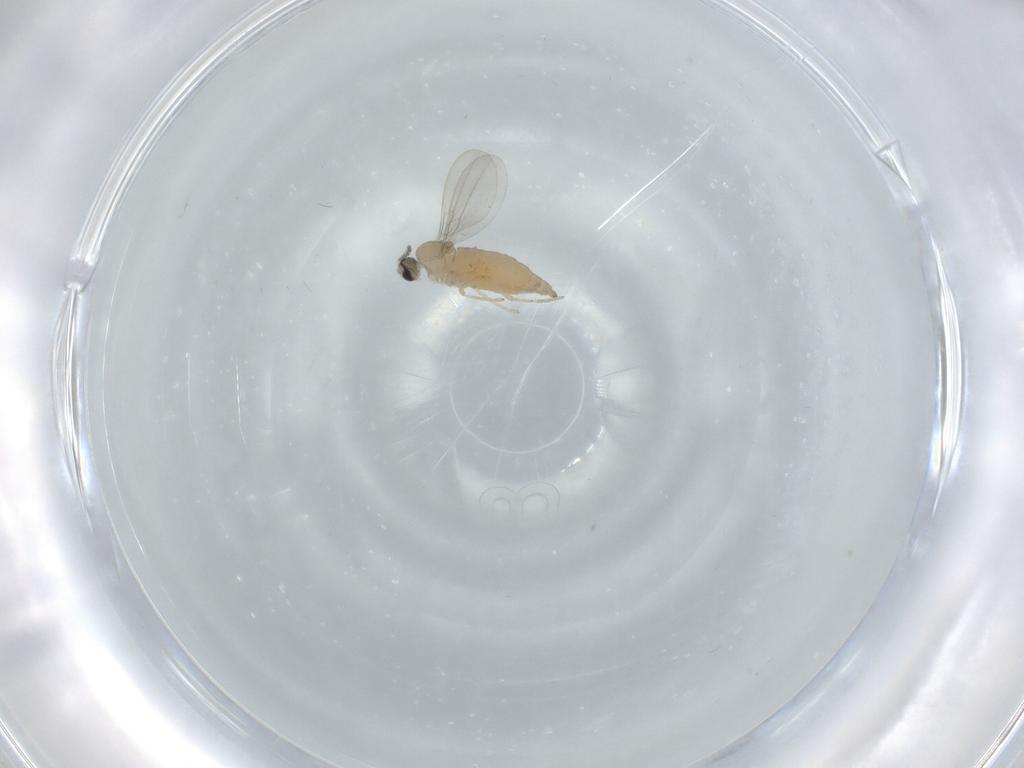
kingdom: Animalia
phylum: Arthropoda
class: Insecta
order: Diptera
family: Cecidomyiidae
